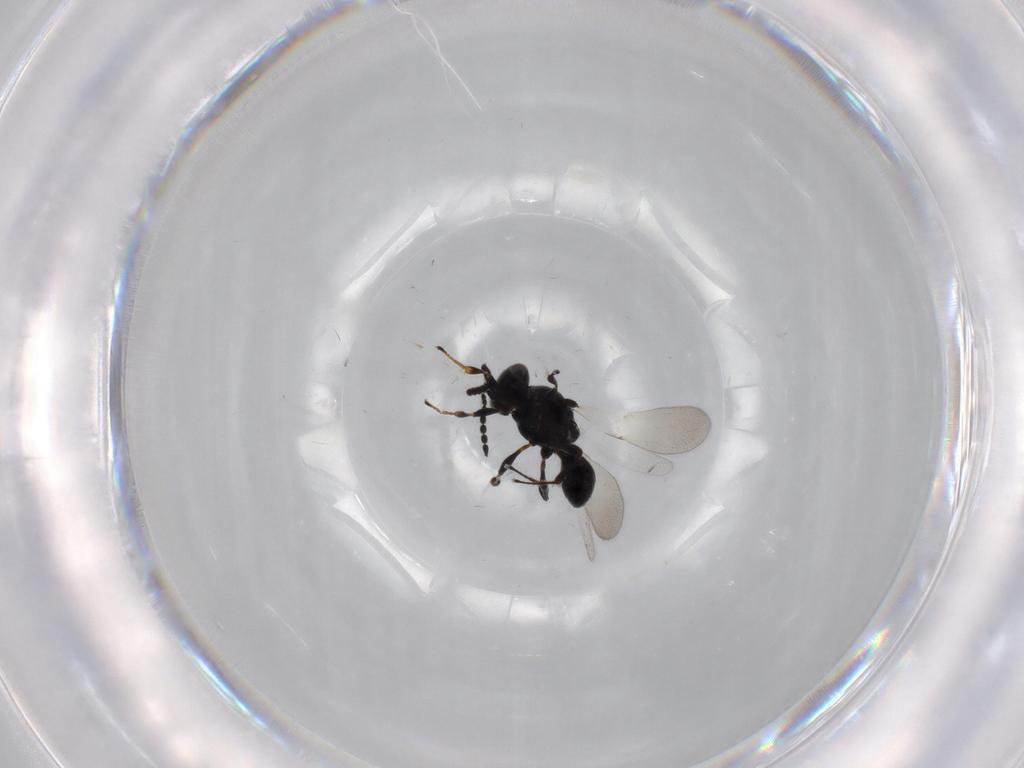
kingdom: Animalia
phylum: Arthropoda
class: Insecta
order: Hymenoptera
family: Platygastridae
